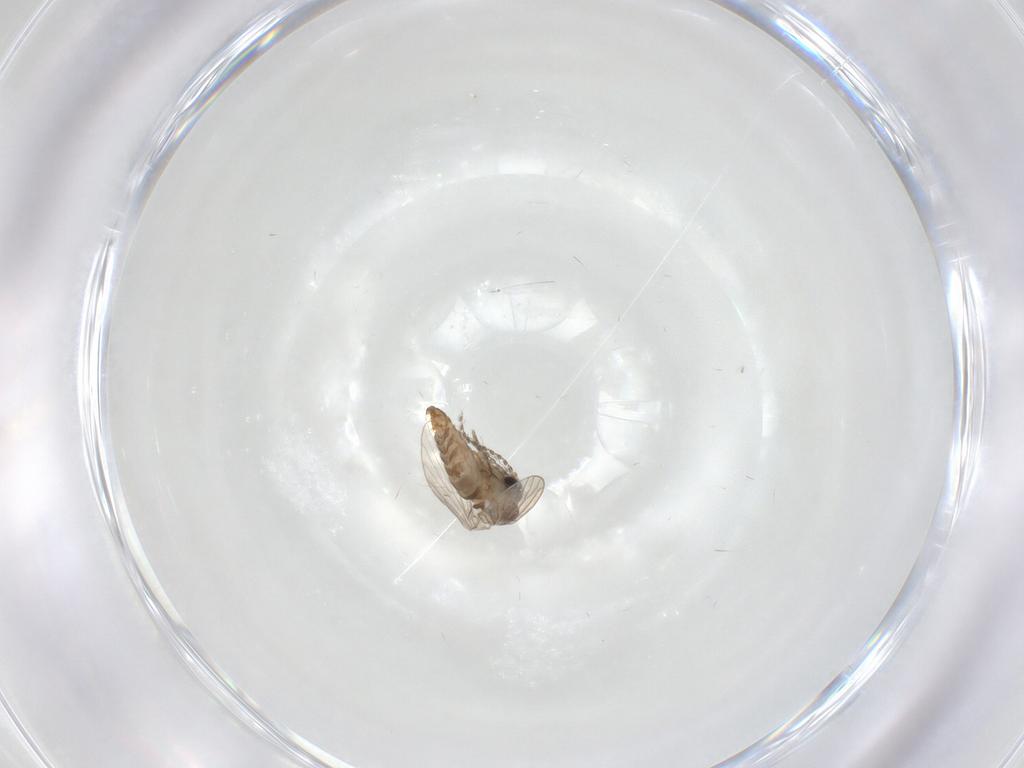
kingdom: Animalia
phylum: Arthropoda
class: Insecta
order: Diptera
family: Psychodidae
